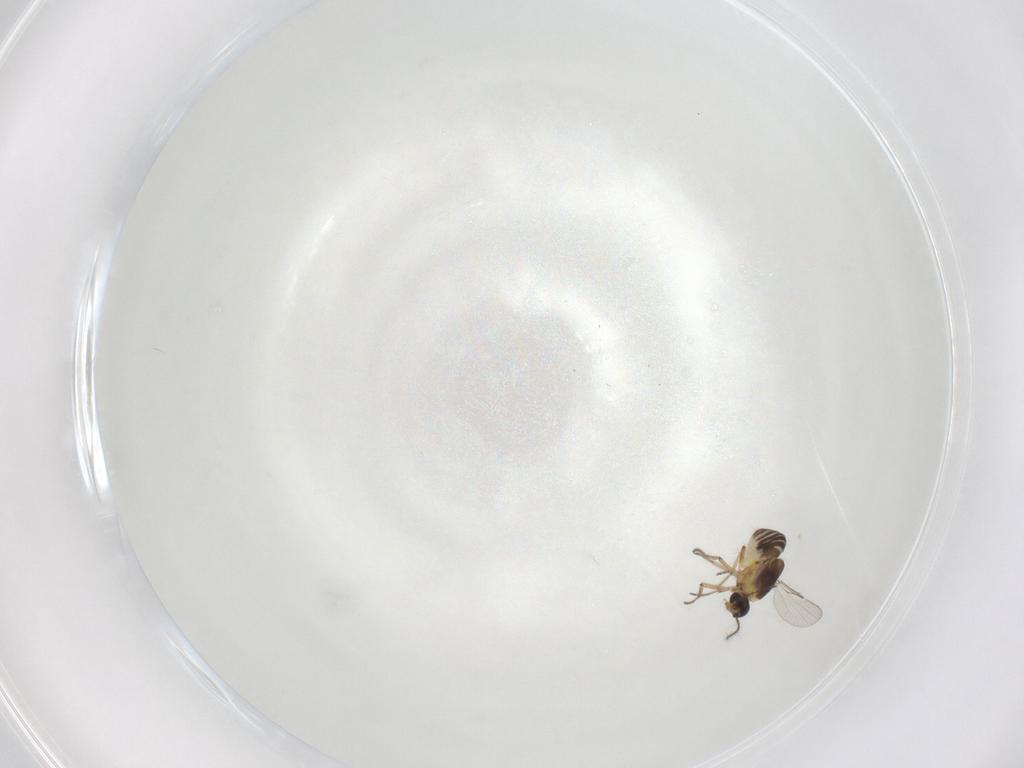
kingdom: Animalia
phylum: Arthropoda
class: Insecta
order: Diptera
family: Ceratopogonidae
